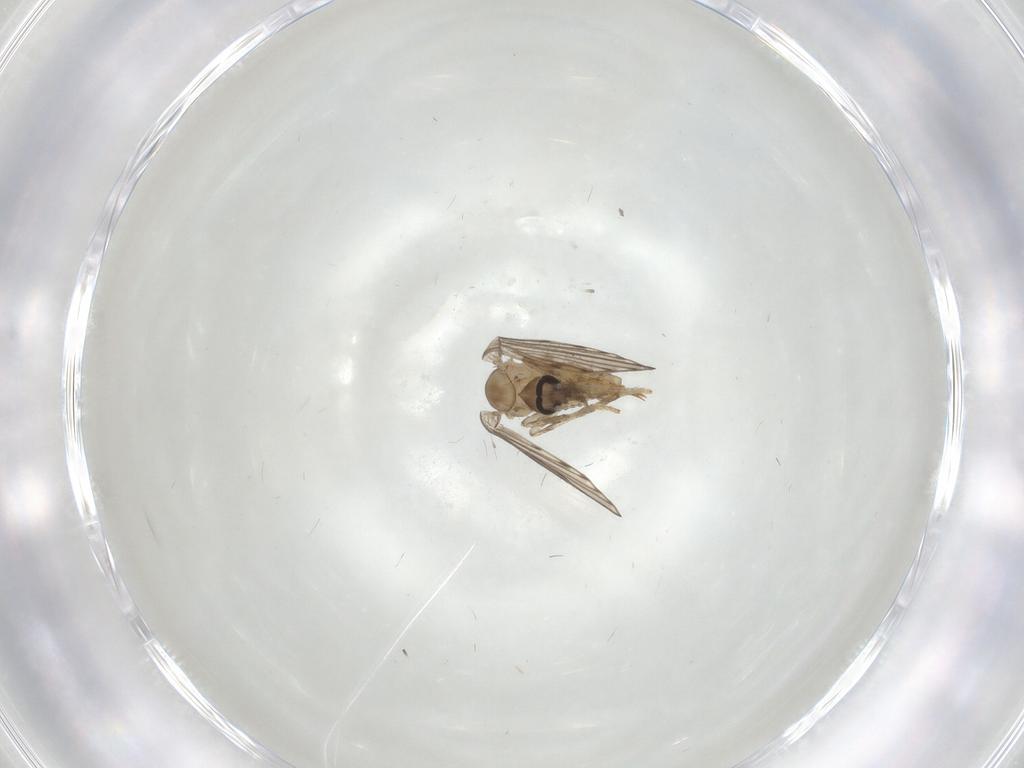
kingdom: Animalia
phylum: Arthropoda
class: Insecta
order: Diptera
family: Psychodidae
